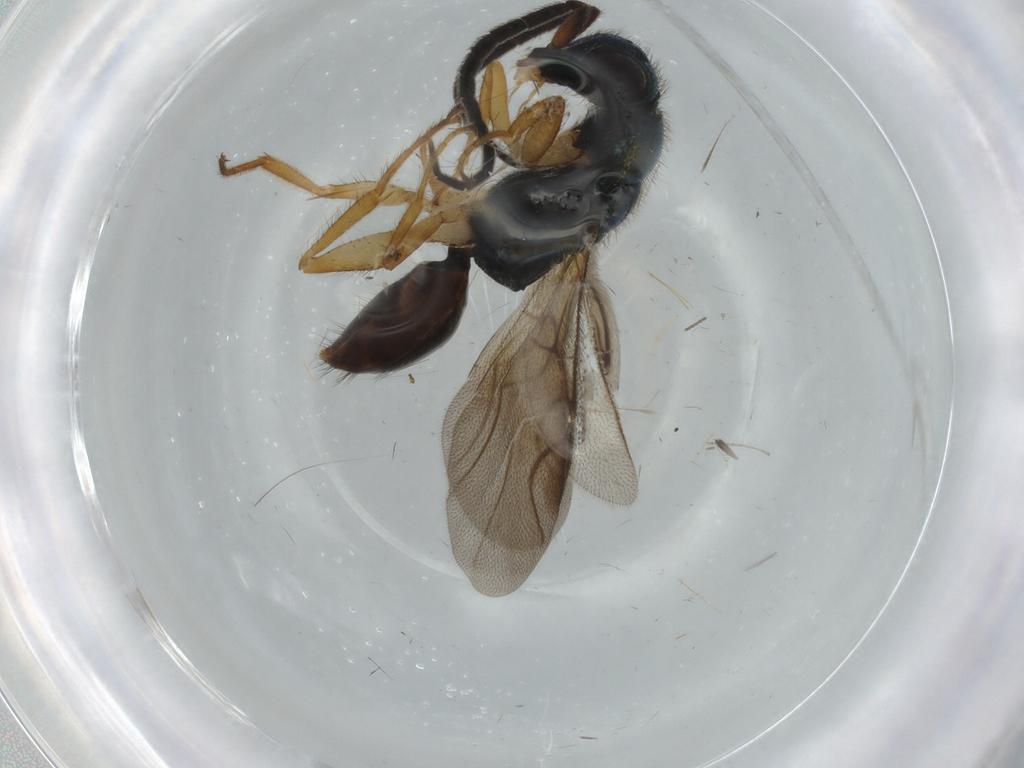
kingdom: Animalia
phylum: Arthropoda
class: Insecta
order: Hymenoptera
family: Chrysididae
